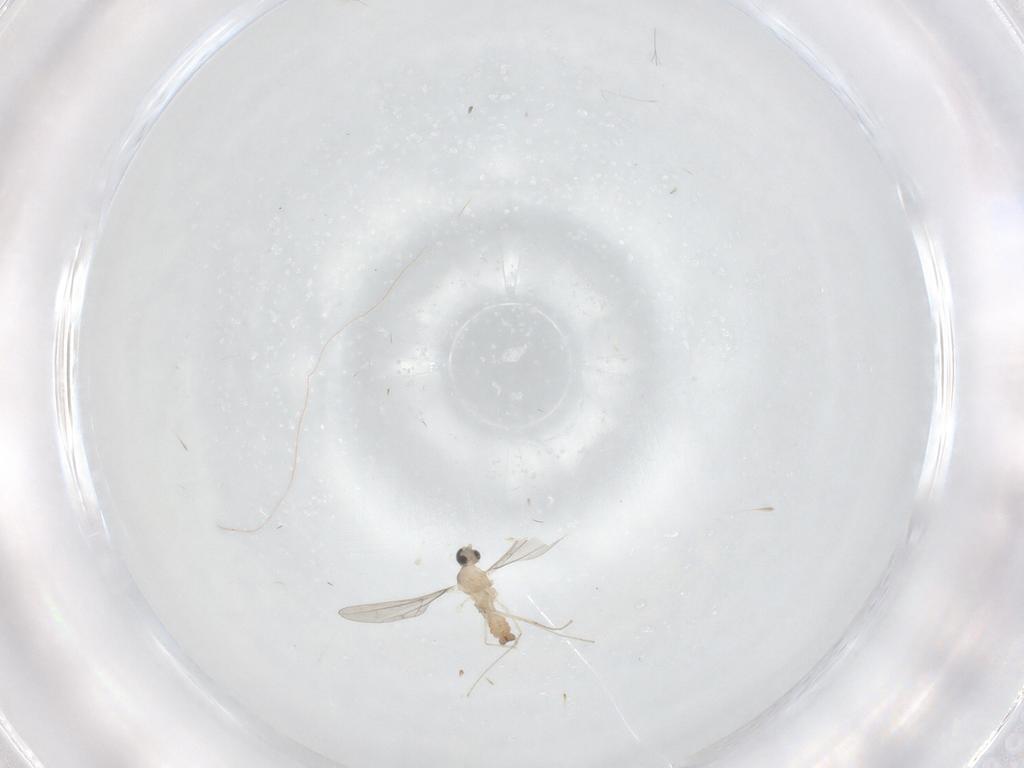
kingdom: Animalia
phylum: Arthropoda
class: Insecta
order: Diptera
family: Cecidomyiidae
